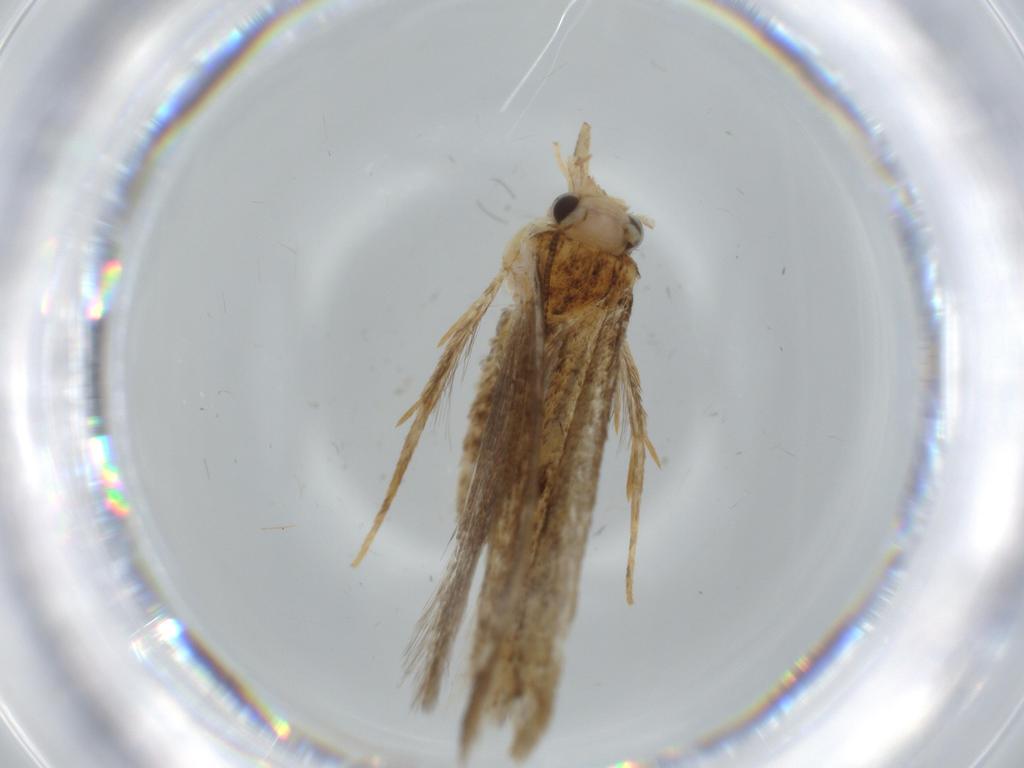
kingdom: Animalia
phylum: Arthropoda
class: Insecta
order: Lepidoptera
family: Tineidae
